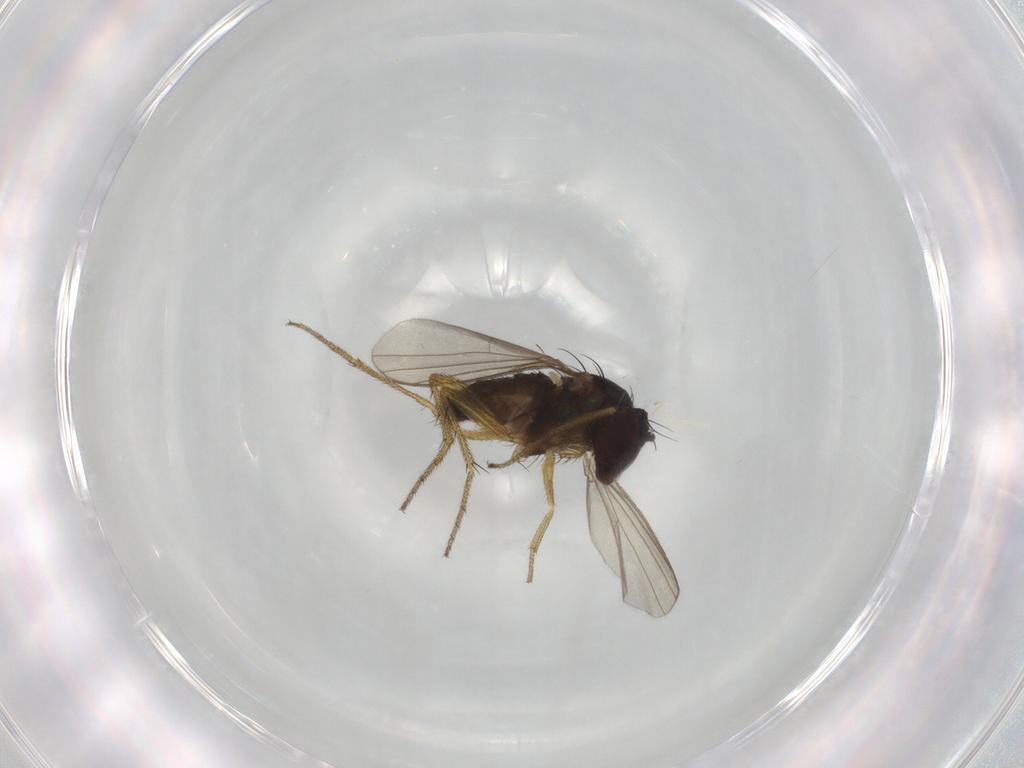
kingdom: Animalia
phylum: Arthropoda
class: Insecta
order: Diptera
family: Dolichopodidae
